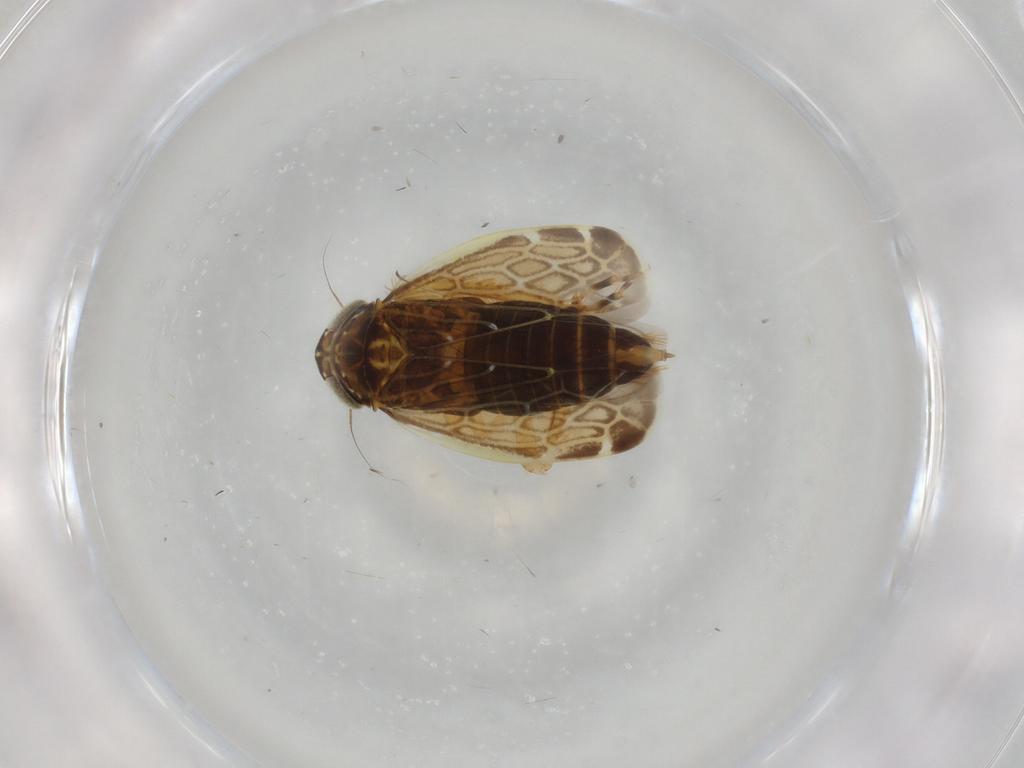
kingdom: Animalia
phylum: Arthropoda
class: Insecta
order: Hemiptera
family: Cicadellidae
